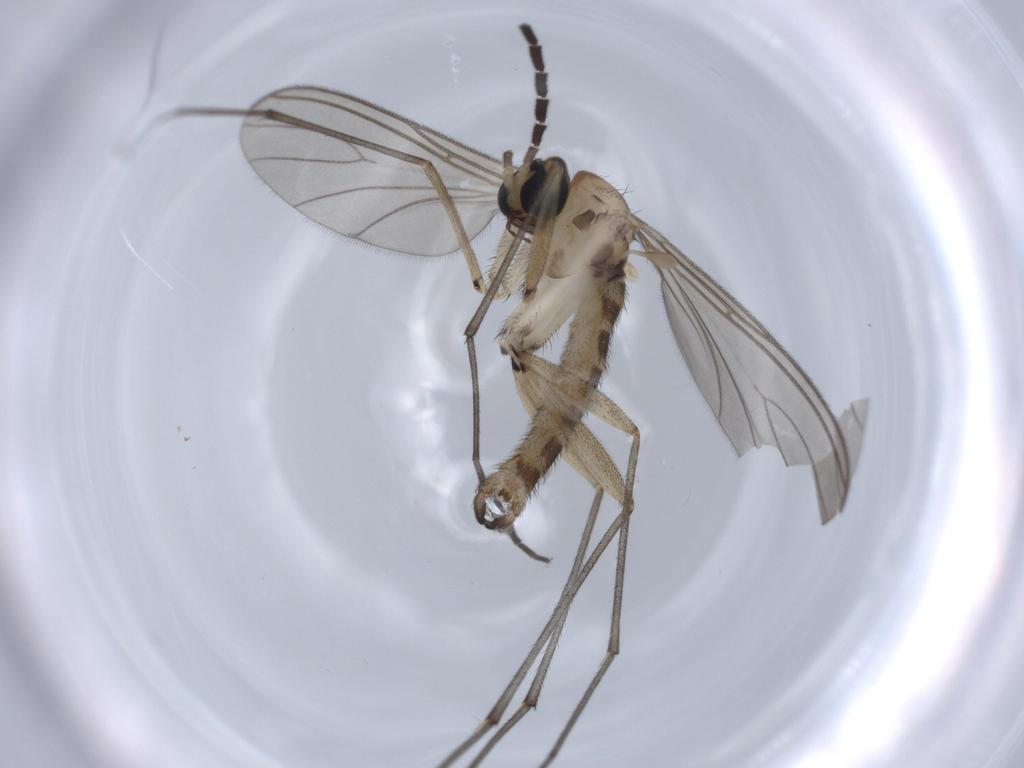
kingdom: Animalia
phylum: Arthropoda
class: Insecta
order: Diptera
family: Sciaridae
